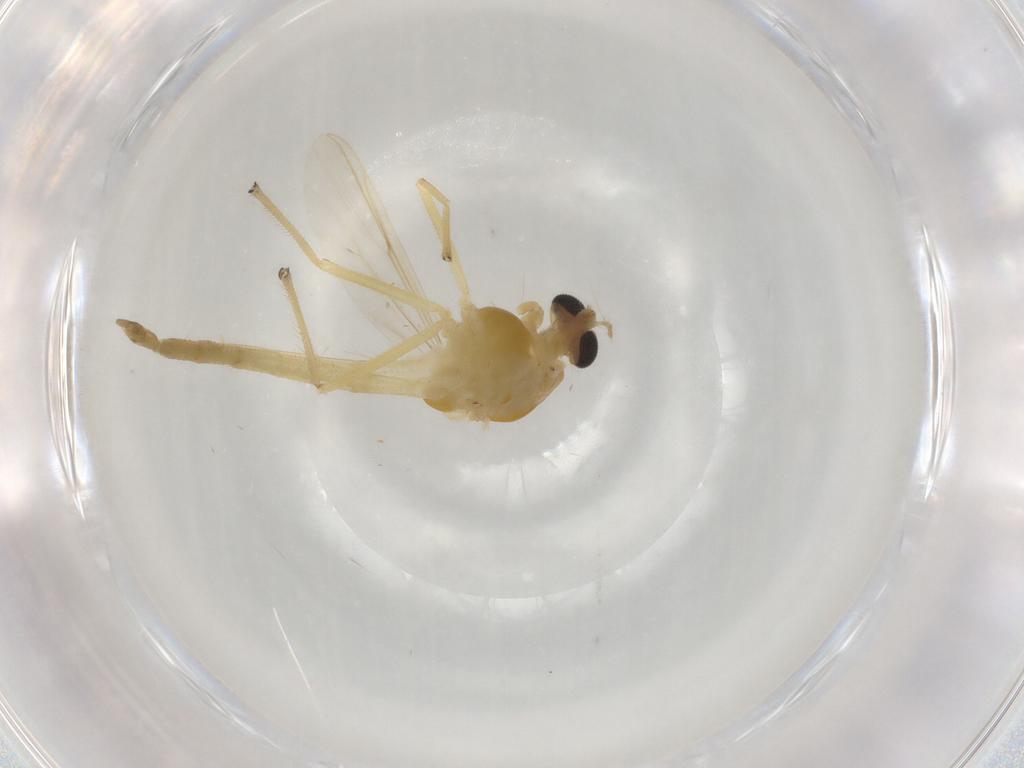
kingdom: Animalia
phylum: Arthropoda
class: Insecta
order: Diptera
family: Chironomidae
